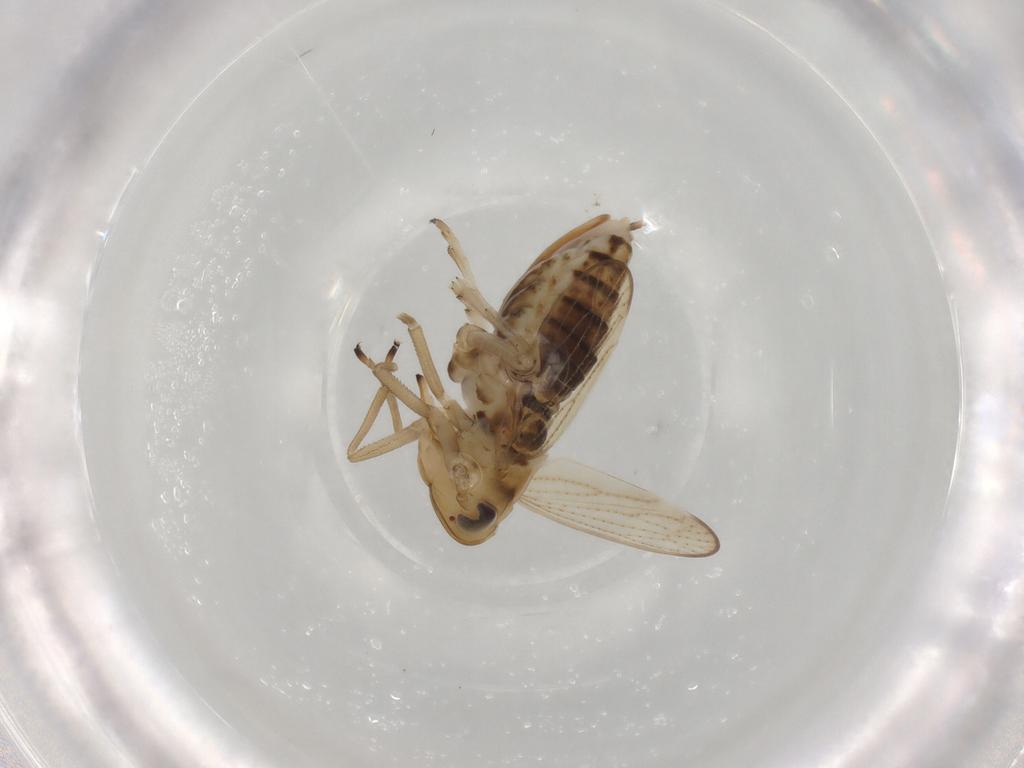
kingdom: Animalia
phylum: Arthropoda
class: Insecta
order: Hemiptera
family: Delphacidae
